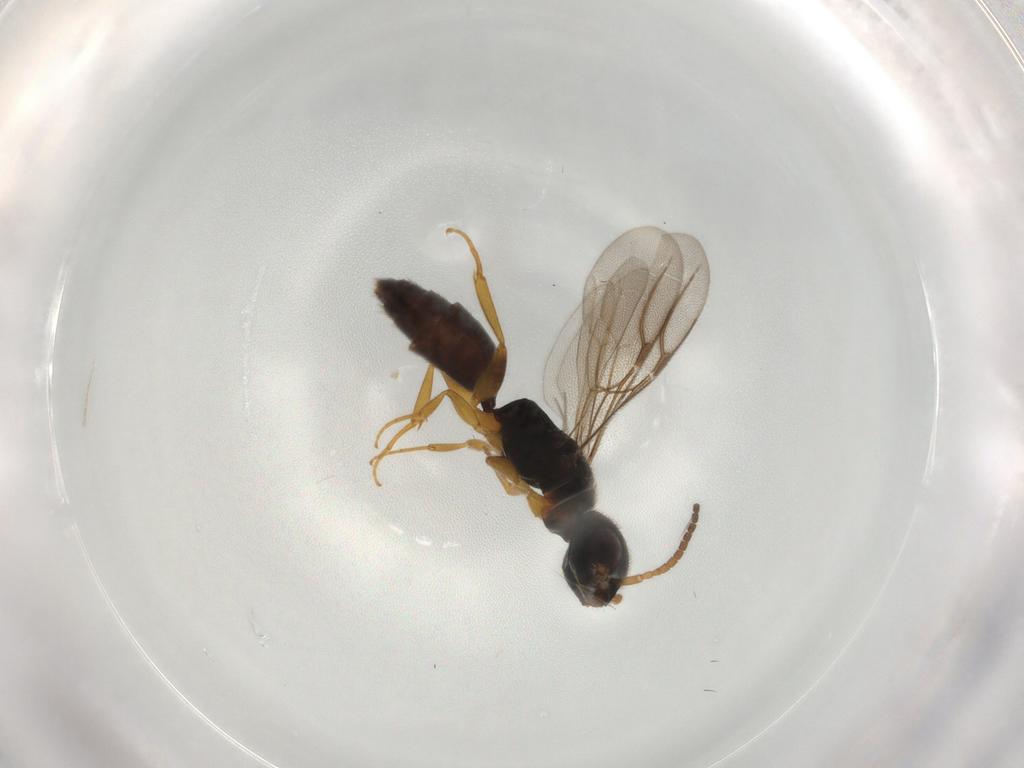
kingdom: Animalia
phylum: Arthropoda
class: Insecta
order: Hymenoptera
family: Bethylidae
